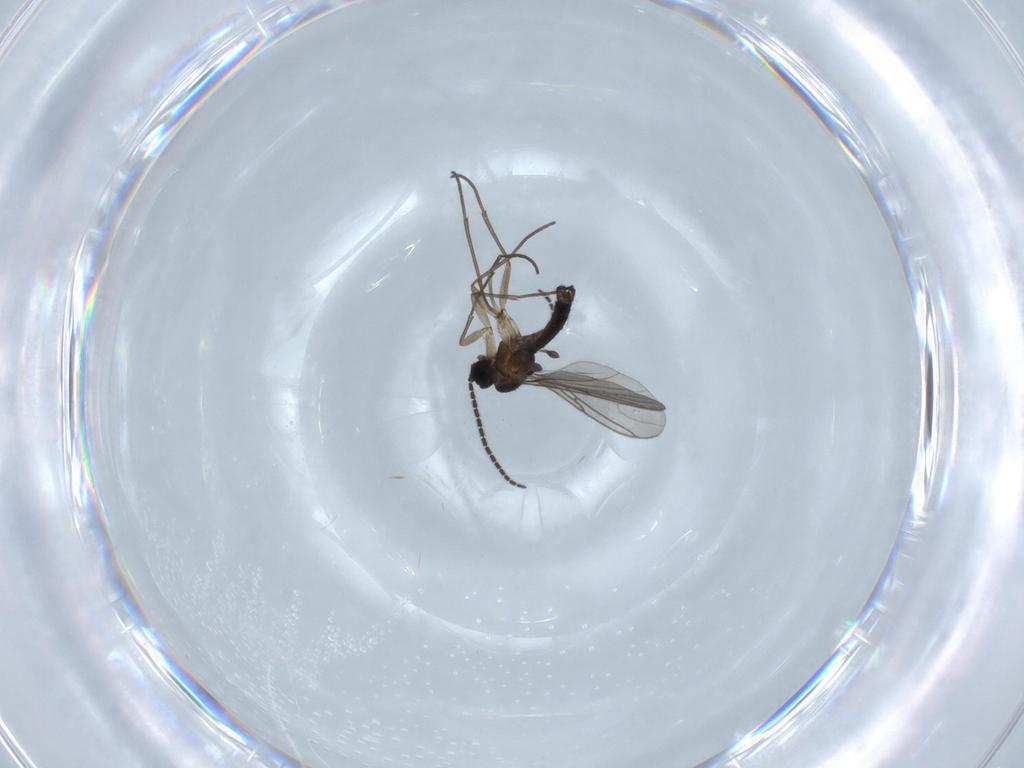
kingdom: Animalia
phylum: Arthropoda
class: Insecta
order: Diptera
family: Sciaridae
